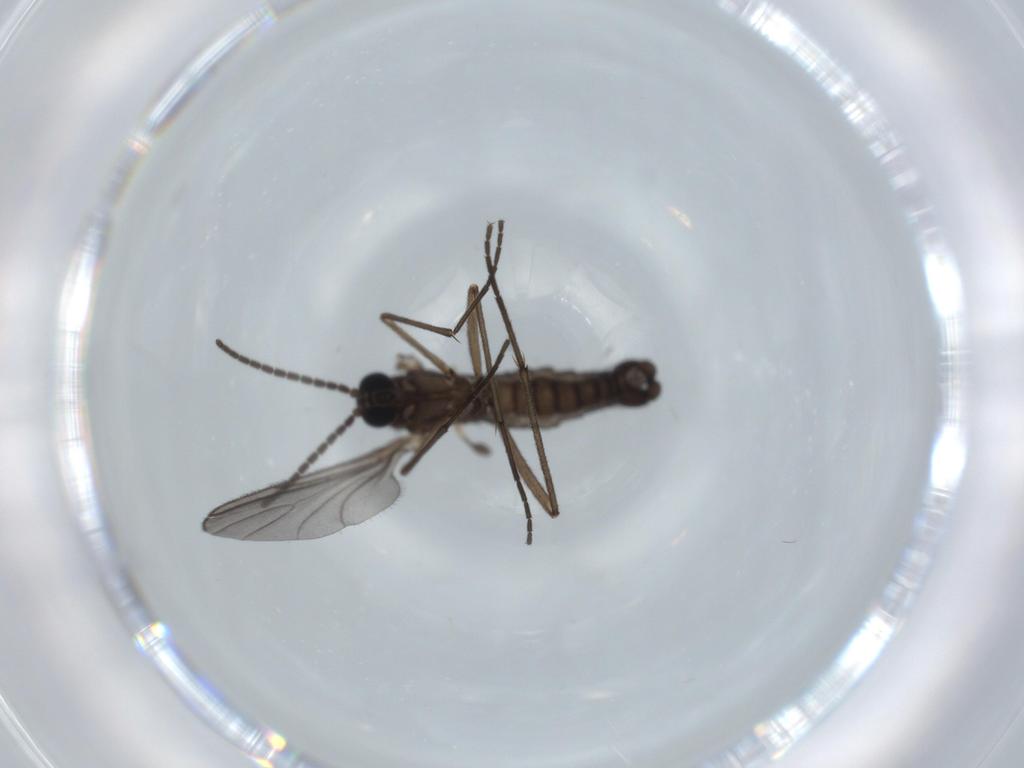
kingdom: Animalia
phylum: Arthropoda
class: Insecta
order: Diptera
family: Sciaridae
